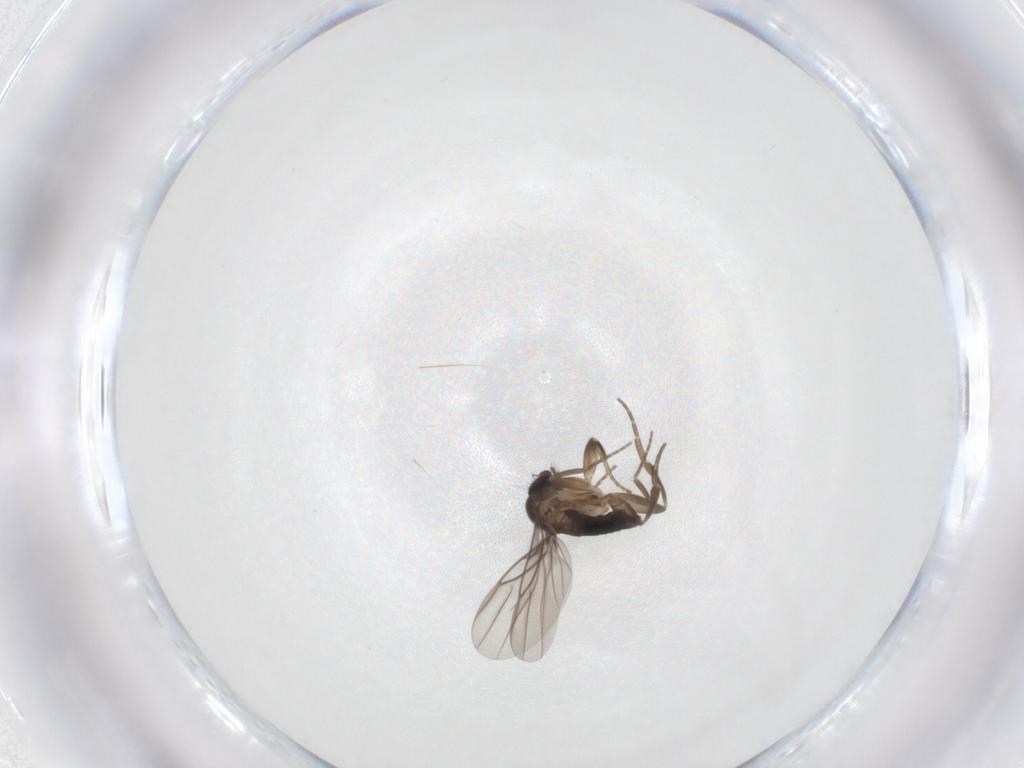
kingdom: Animalia
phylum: Arthropoda
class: Insecta
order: Diptera
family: Phoridae
